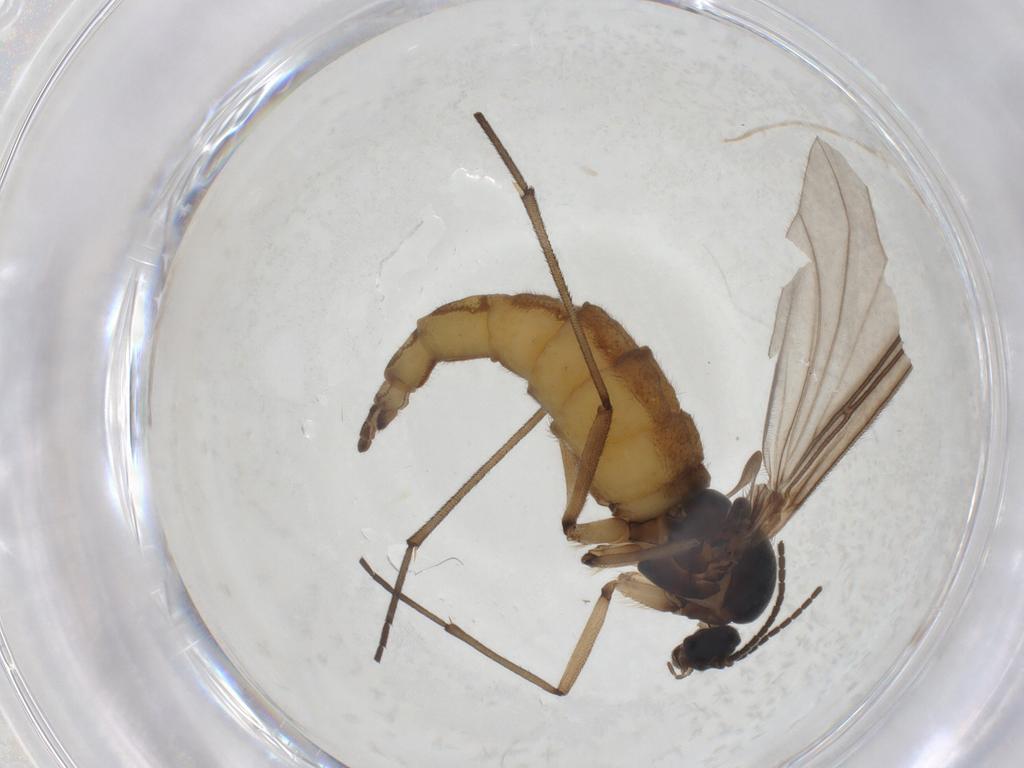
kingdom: Animalia
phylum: Arthropoda
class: Insecta
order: Diptera
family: Sciaridae
